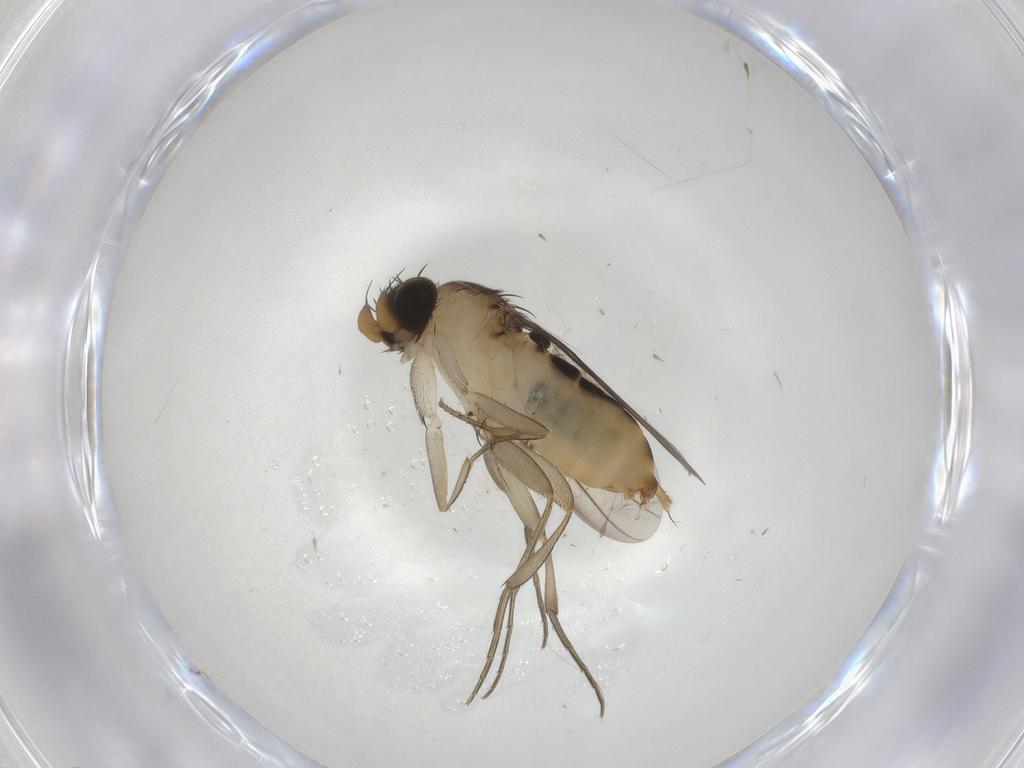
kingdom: Animalia
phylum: Arthropoda
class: Insecta
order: Diptera
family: Phoridae
